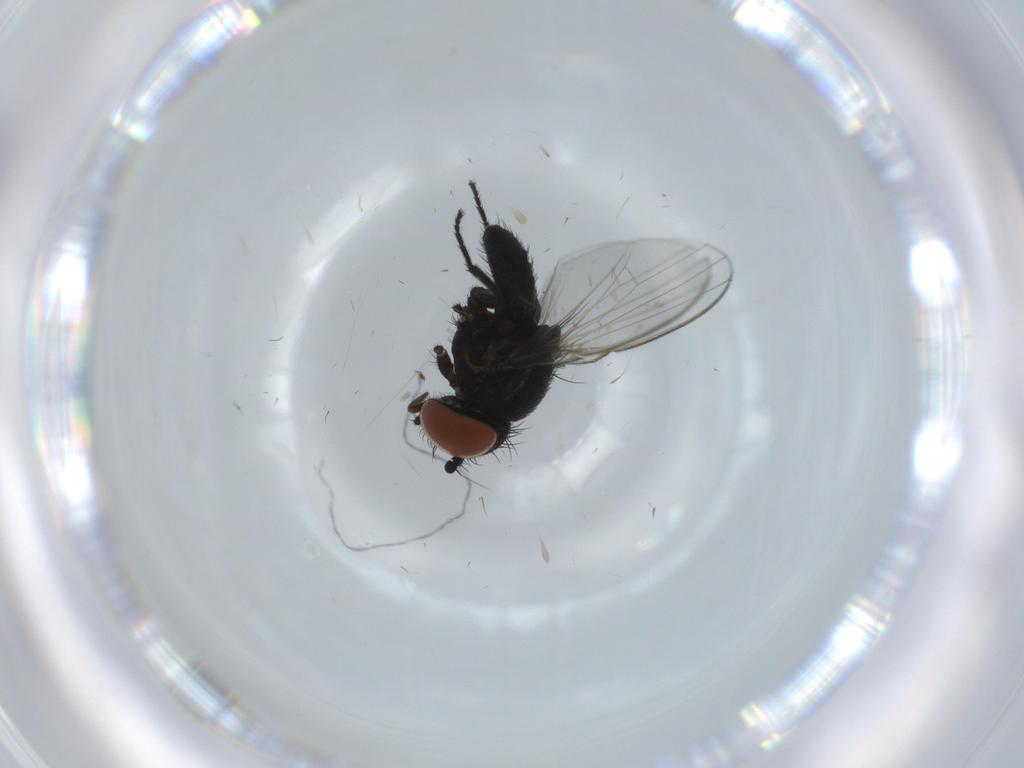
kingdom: Animalia
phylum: Arthropoda
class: Insecta
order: Diptera
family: Milichiidae
